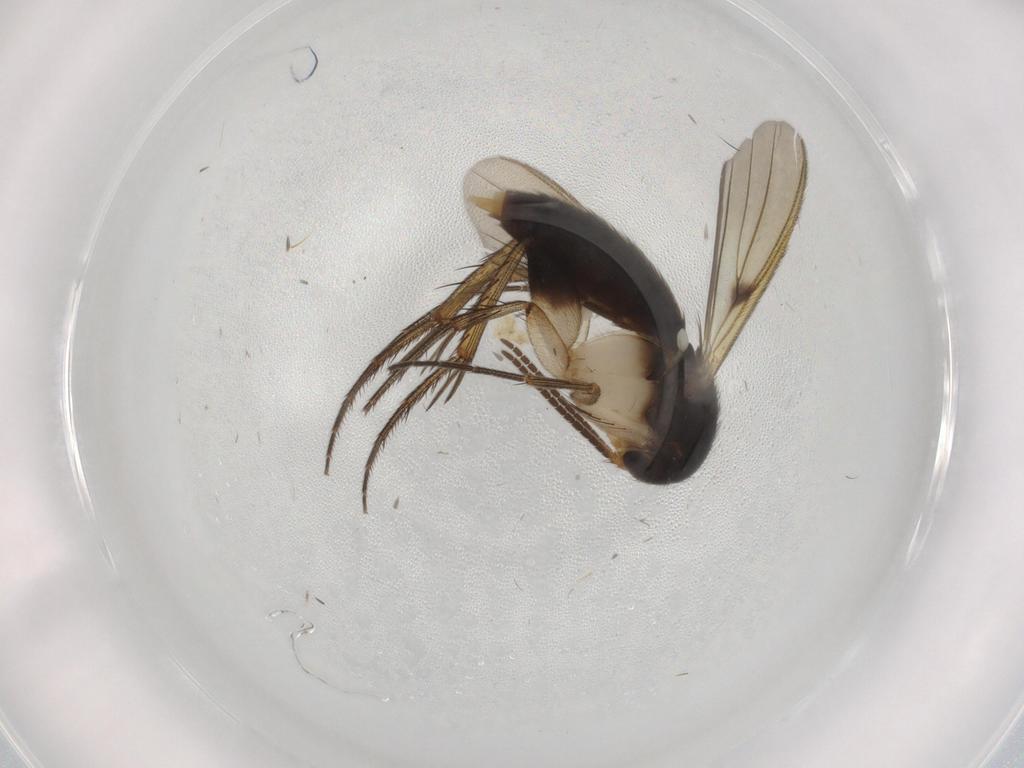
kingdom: Animalia
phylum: Arthropoda
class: Insecta
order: Diptera
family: Mycetophilidae
